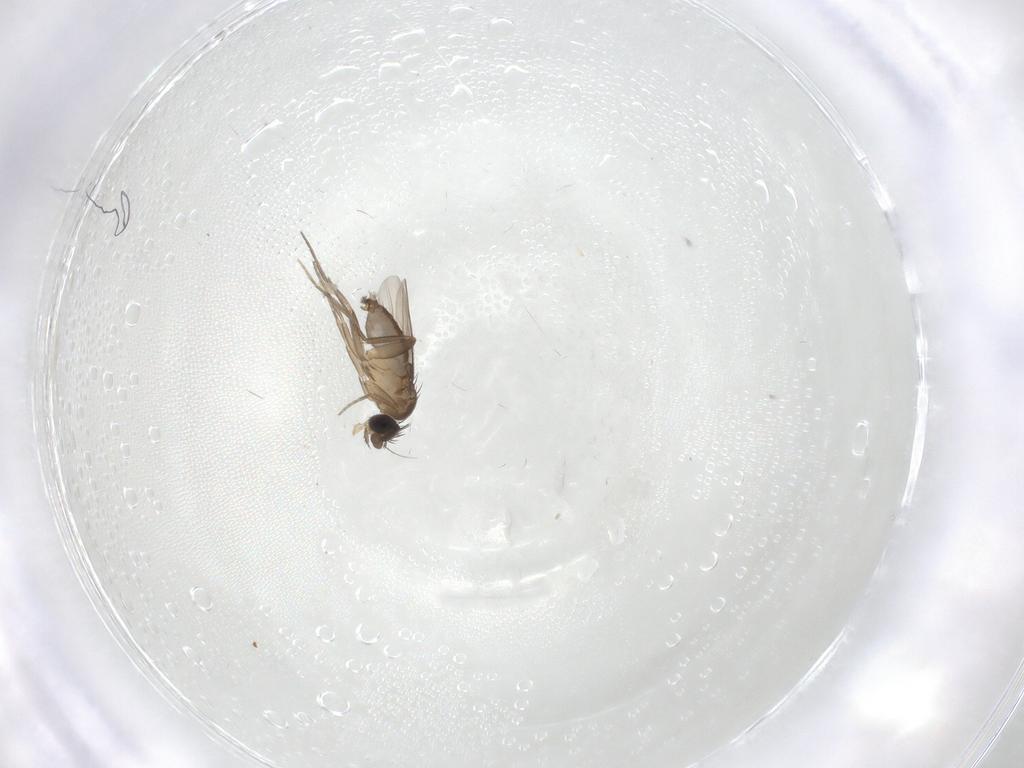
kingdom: Animalia
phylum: Arthropoda
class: Insecta
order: Diptera
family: Phoridae
